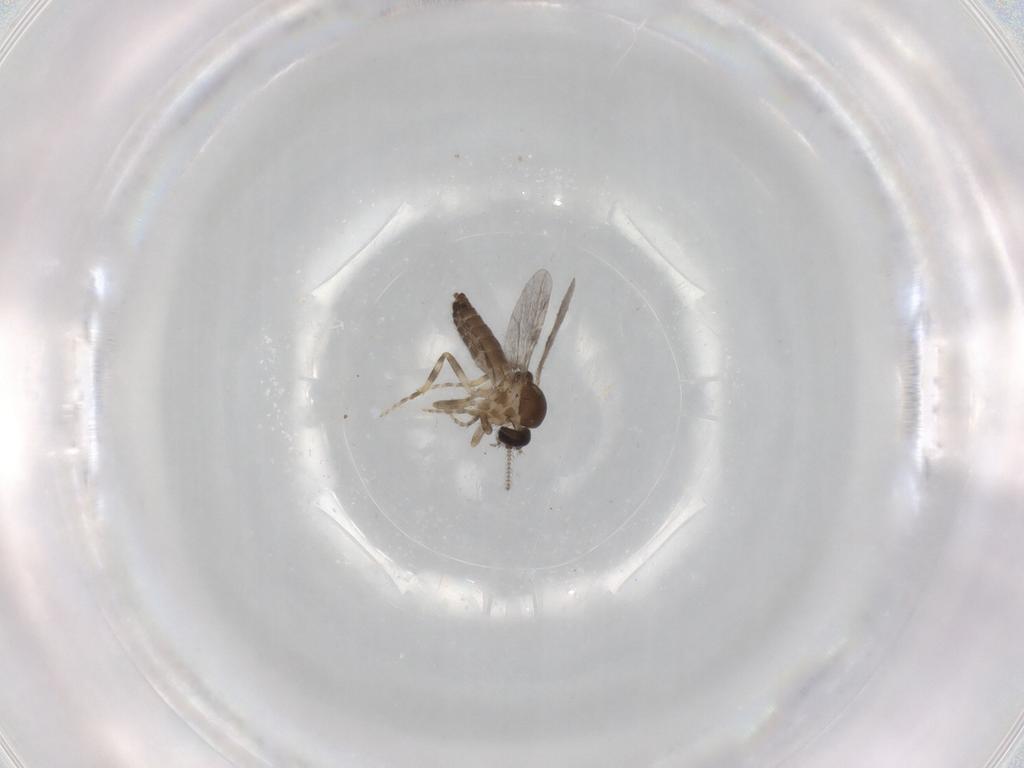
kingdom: Animalia
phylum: Arthropoda
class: Insecta
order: Diptera
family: Ceratopogonidae
